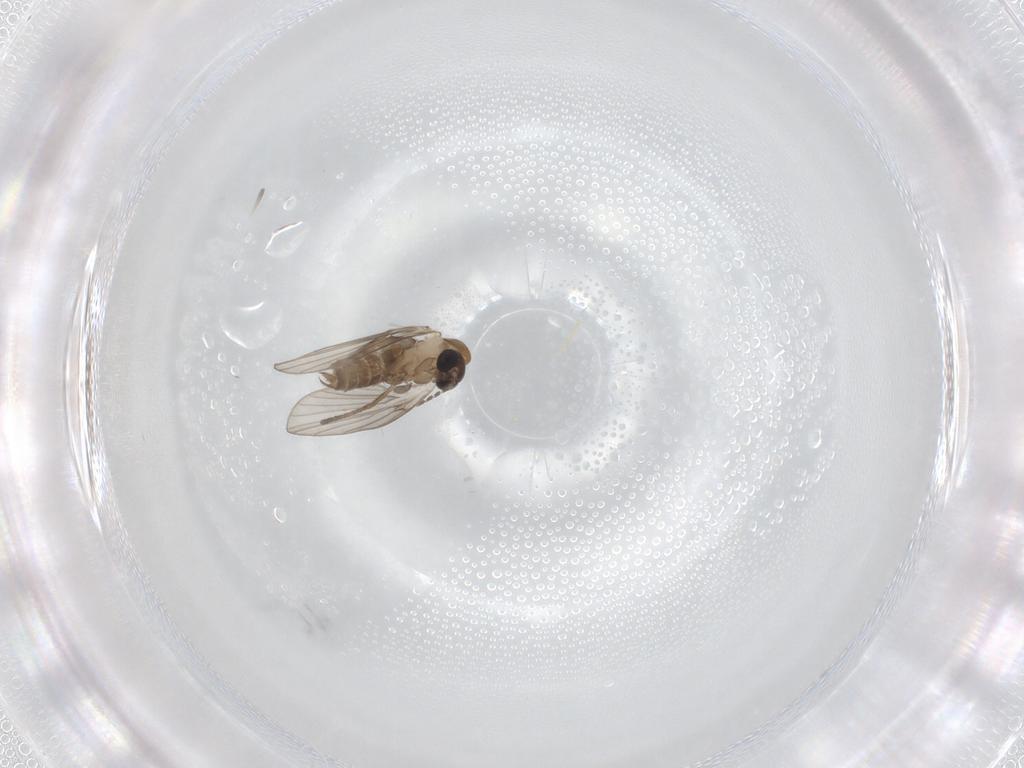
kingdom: Animalia
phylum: Arthropoda
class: Insecta
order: Diptera
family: Psychodidae
